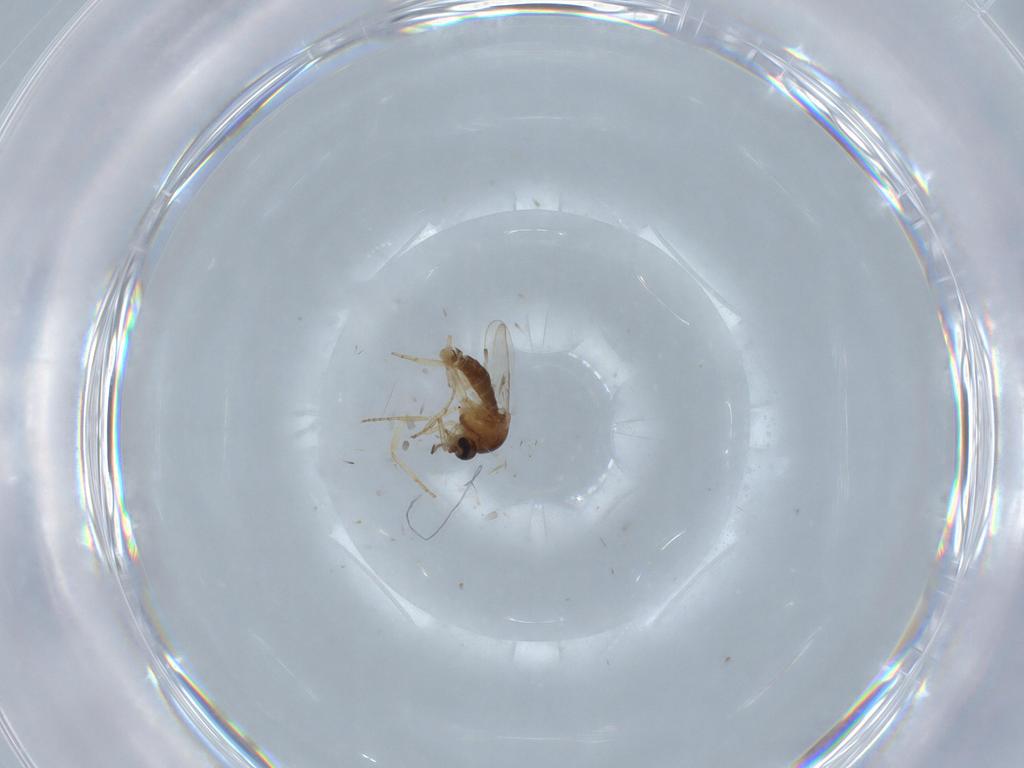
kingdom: Animalia
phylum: Arthropoda
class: Insecta
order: Diptera
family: Ceratopogonidae
